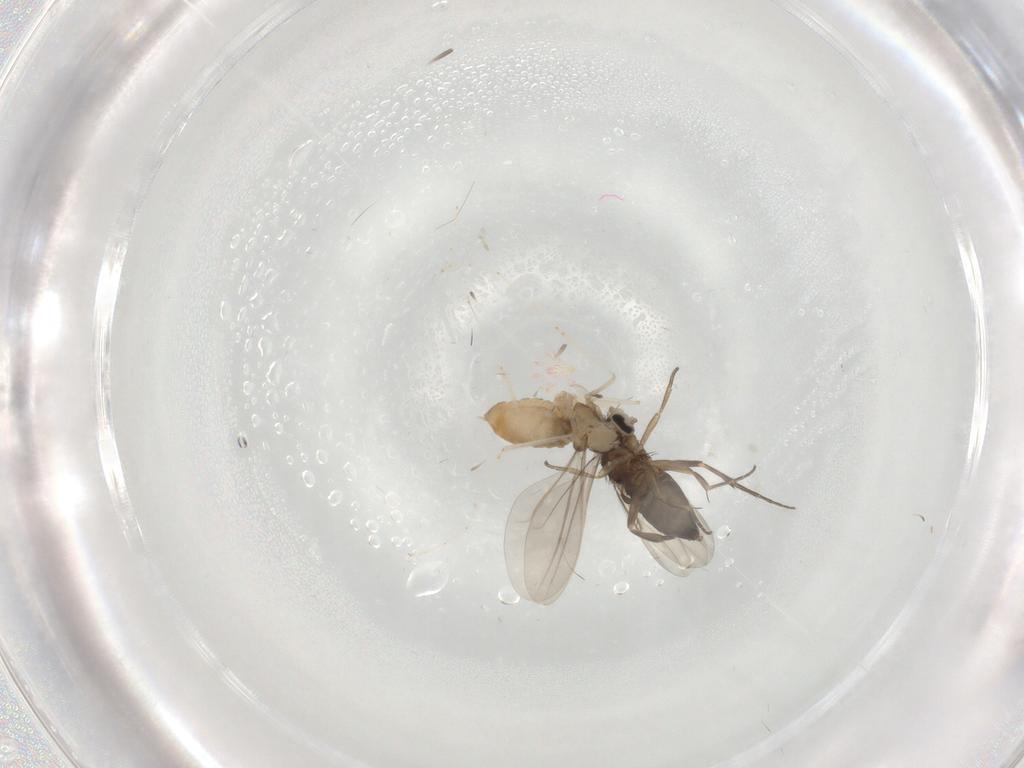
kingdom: Animalia
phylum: Arthropoda
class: Insecta
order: Diptera
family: Cecidomyiidae
